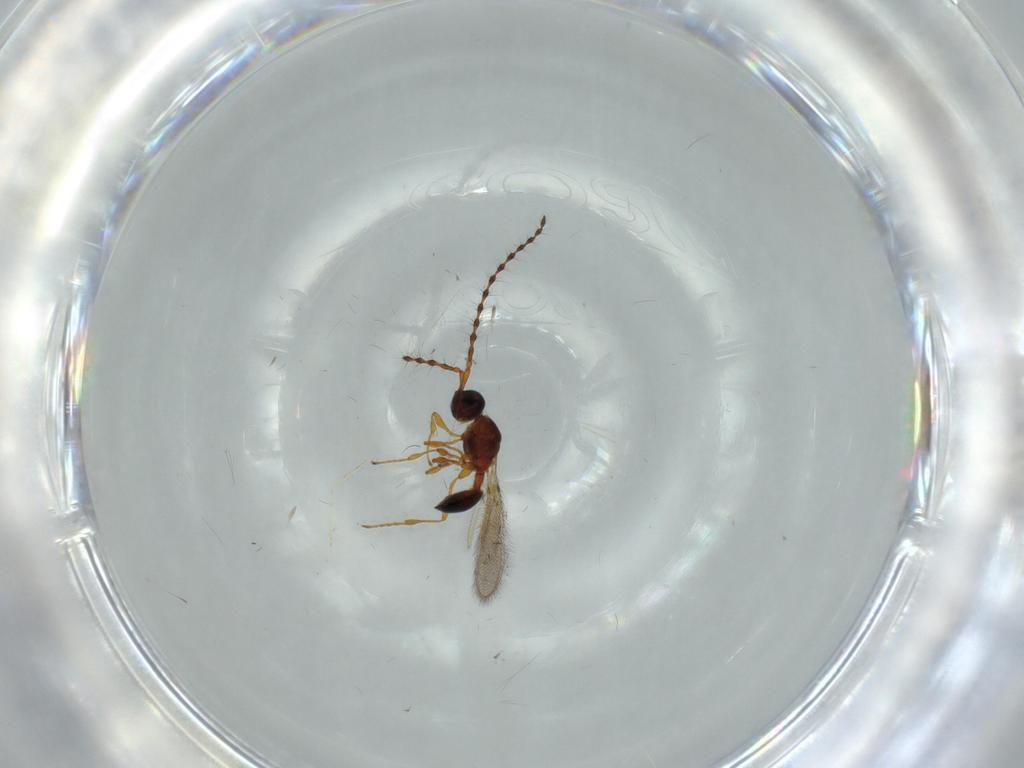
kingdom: Animalia
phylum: Arthropoda
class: Insecta
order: Hymenoptera
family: Diapriidae
